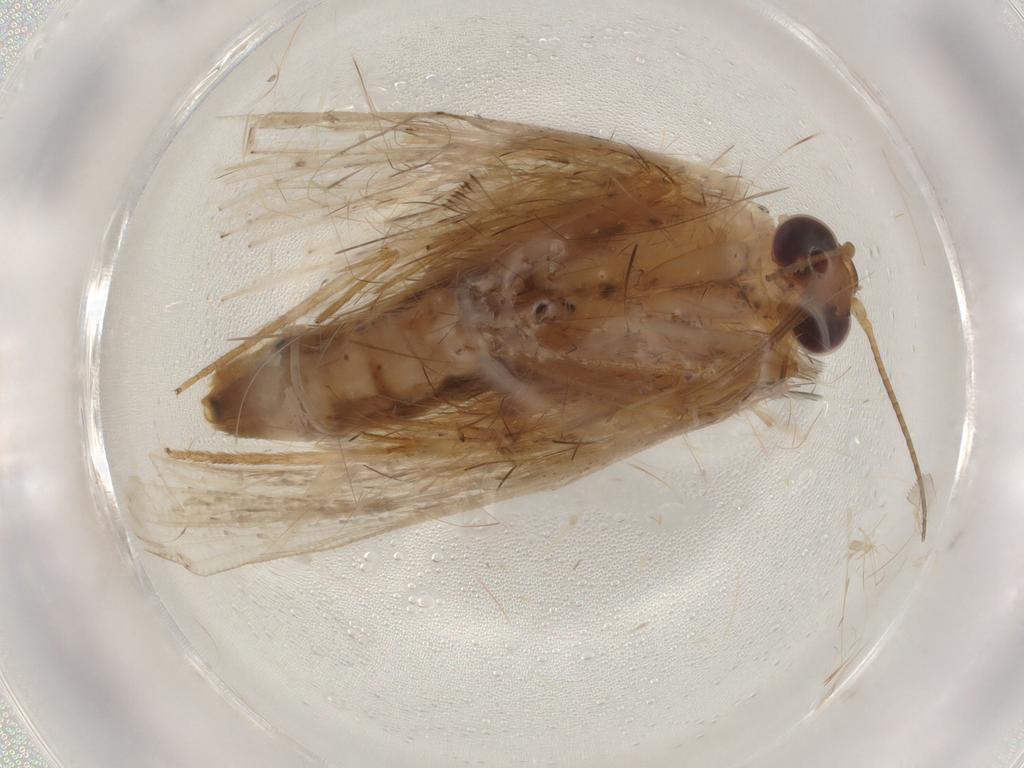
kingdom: Animalia
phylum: Arthropoda
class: Insecta
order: Lepidoptera
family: Erebidae
